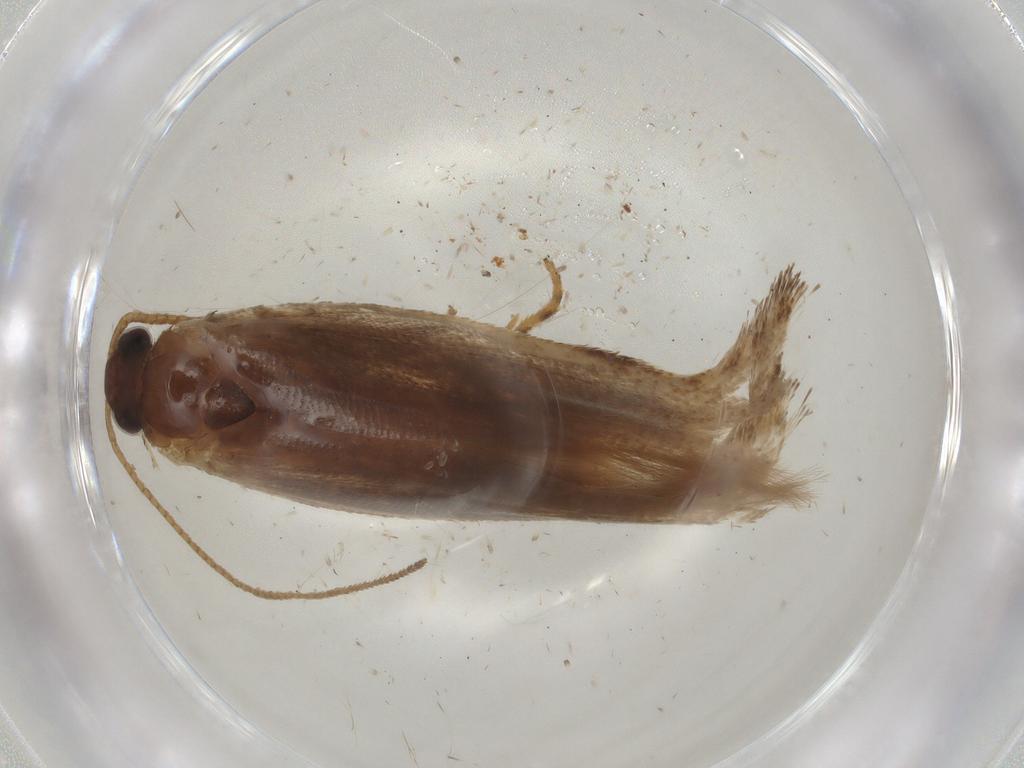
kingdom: Animalia
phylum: Arthropoda
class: Insecta
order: Lepidoptera
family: Gelechiidae
